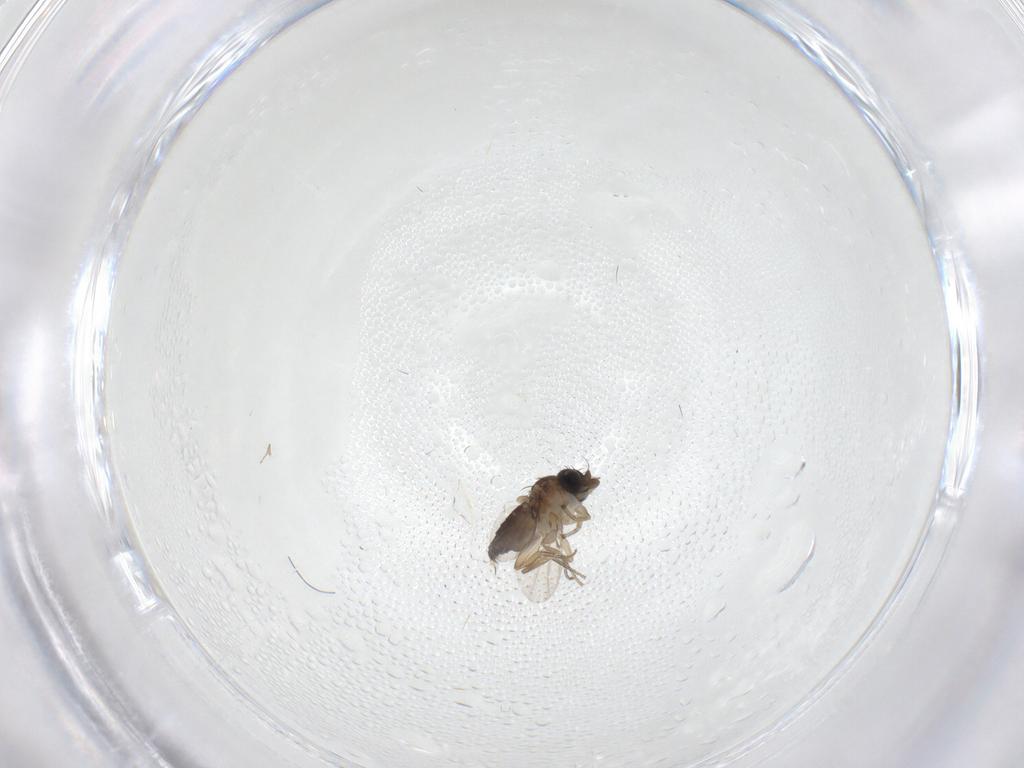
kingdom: Animalia
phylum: Arthropoda
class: Insecta
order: Diptera
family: Phoridae
